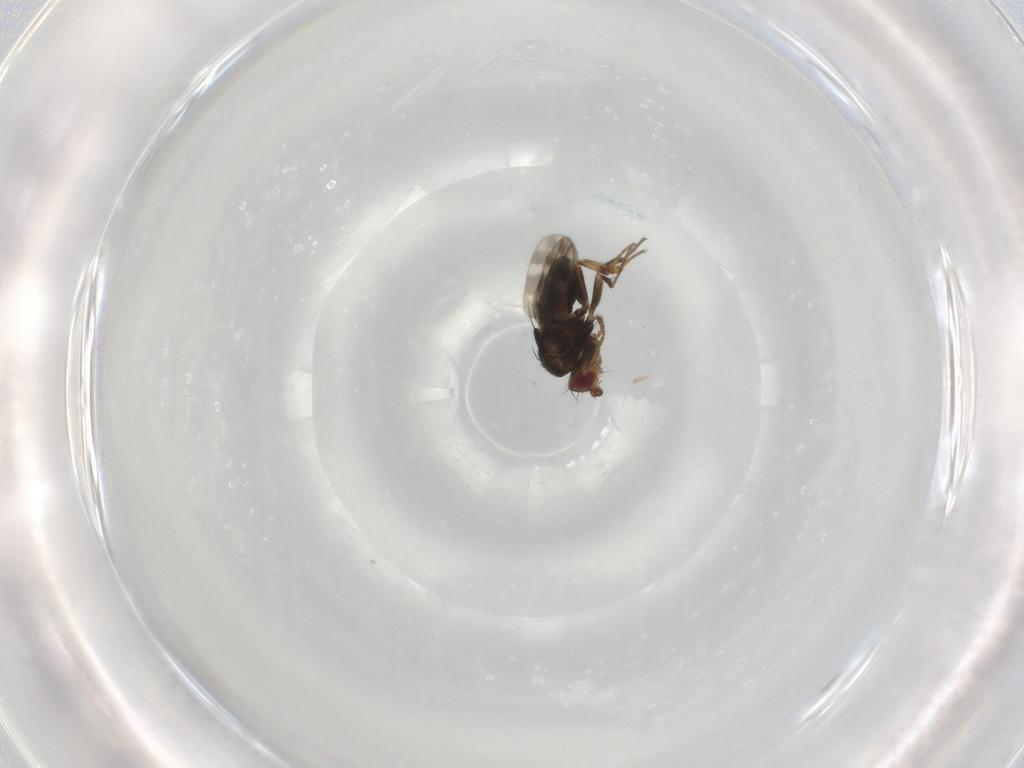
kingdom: Animalia
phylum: Arthropoda
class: Insecta
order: Diptera
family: Sphaeroceridae
